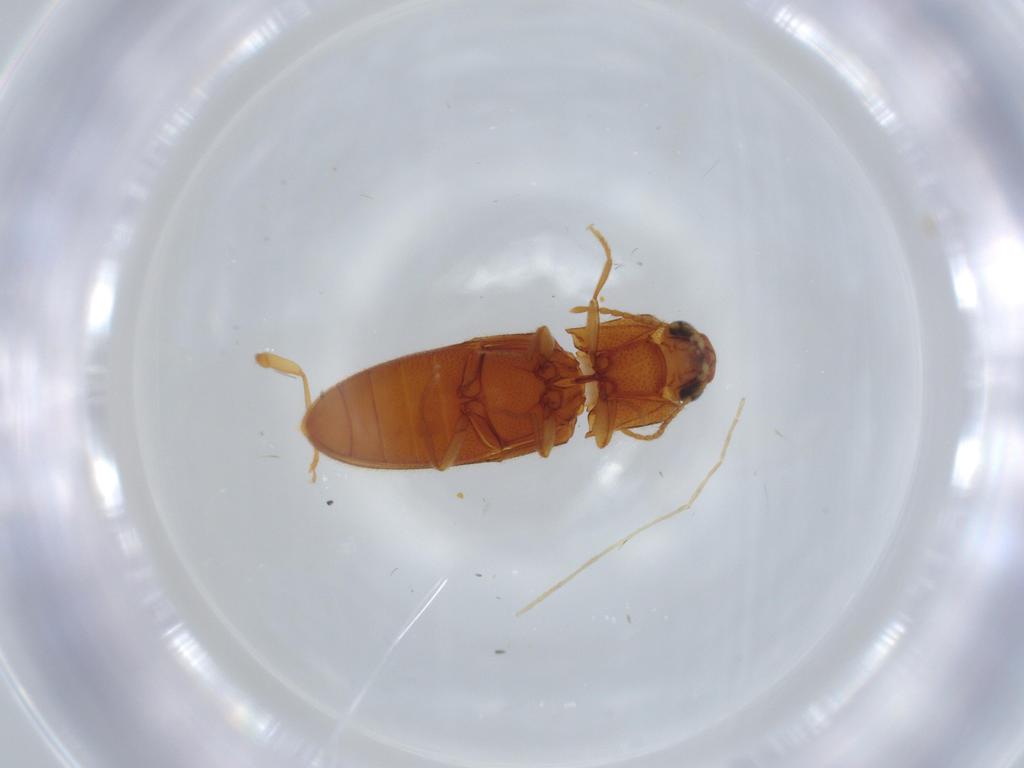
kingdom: Animalia
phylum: Arthropoda
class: Insecta
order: Coleoptera
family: Elateridae
